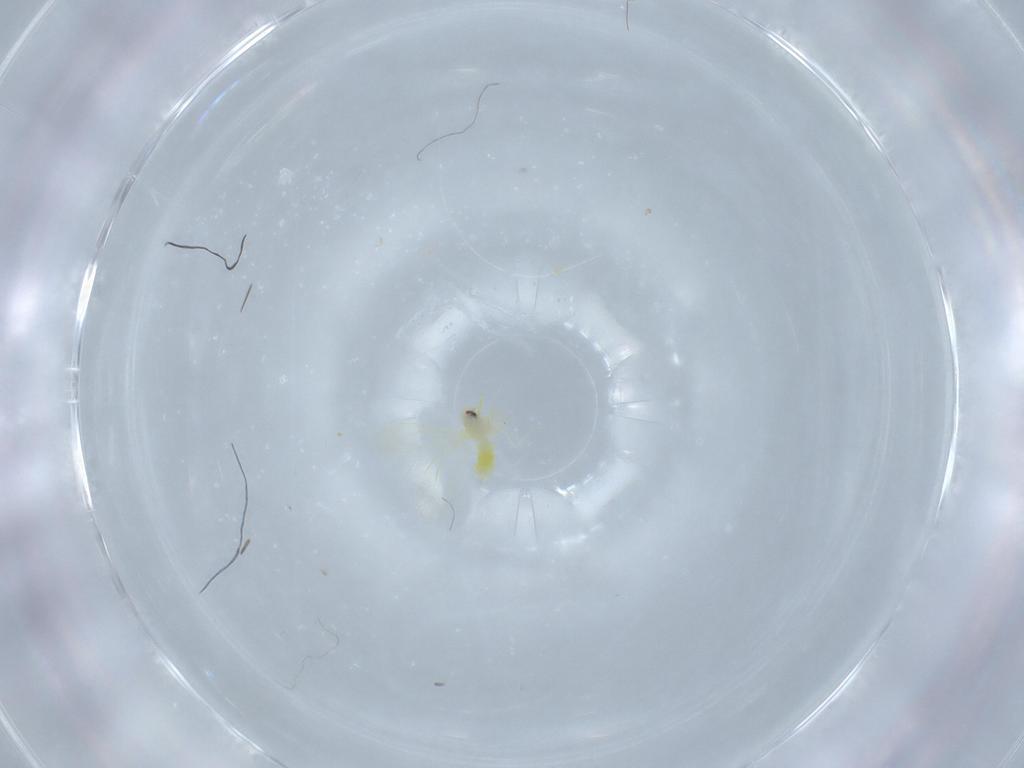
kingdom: Animalia
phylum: Arthropoda
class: Insecta
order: Hemiptera
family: Aleyrodidae
